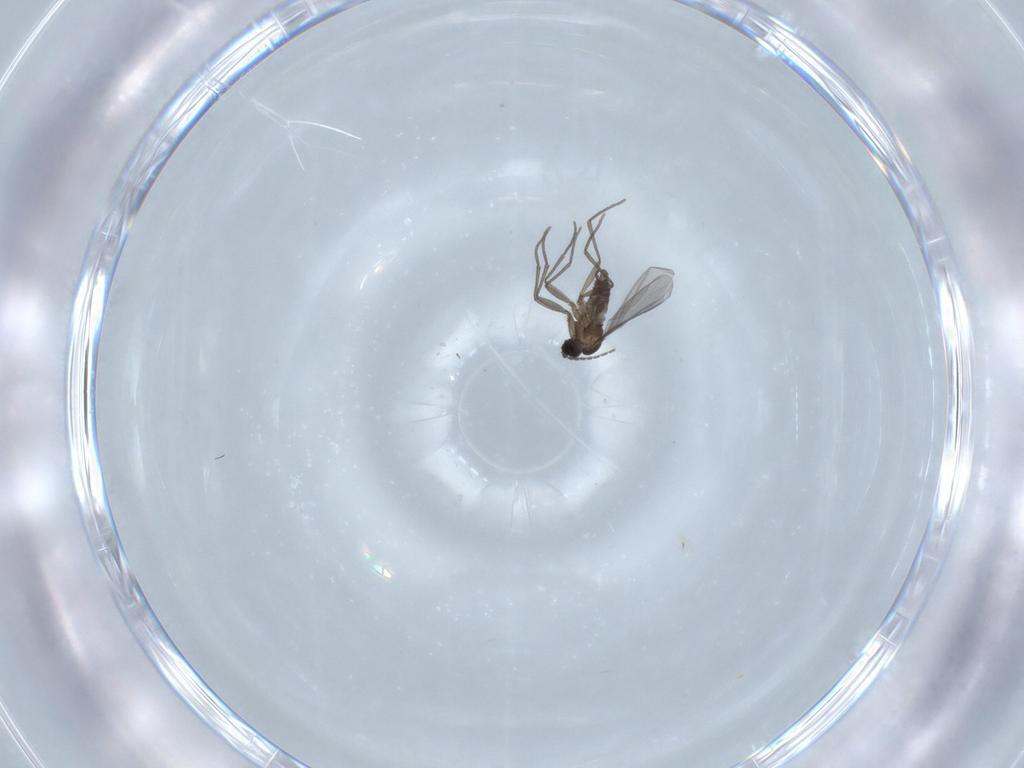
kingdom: Animalia
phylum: Arthropoda
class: Insecta
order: Diptera
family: Sciaridae
